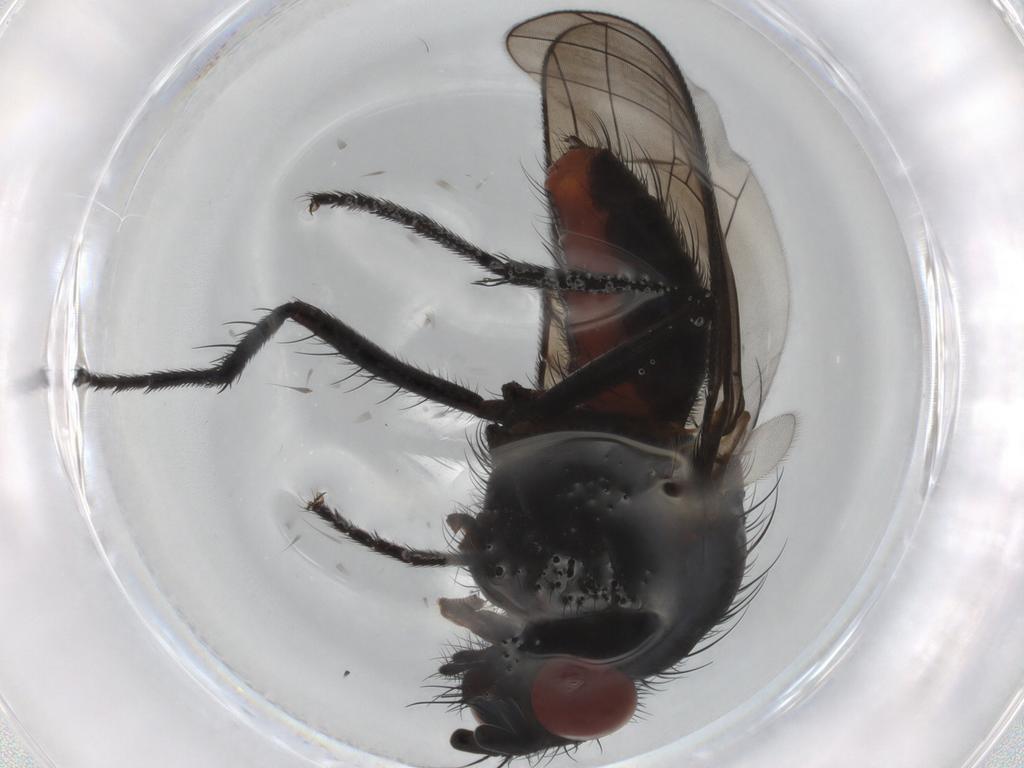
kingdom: Animalia
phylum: Arthropoda
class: Insecta
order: Diptera
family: Anthomyiidae
